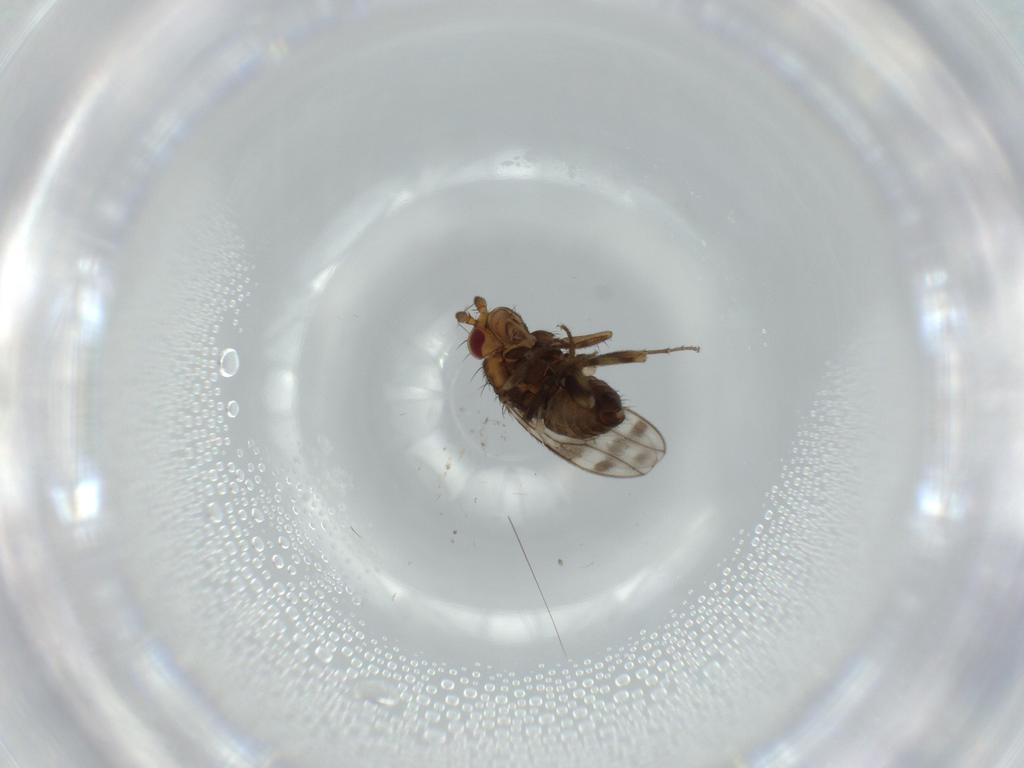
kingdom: Animalia
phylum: Arthropoda
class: Insecta
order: Diptera
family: Sphaeroceridae
